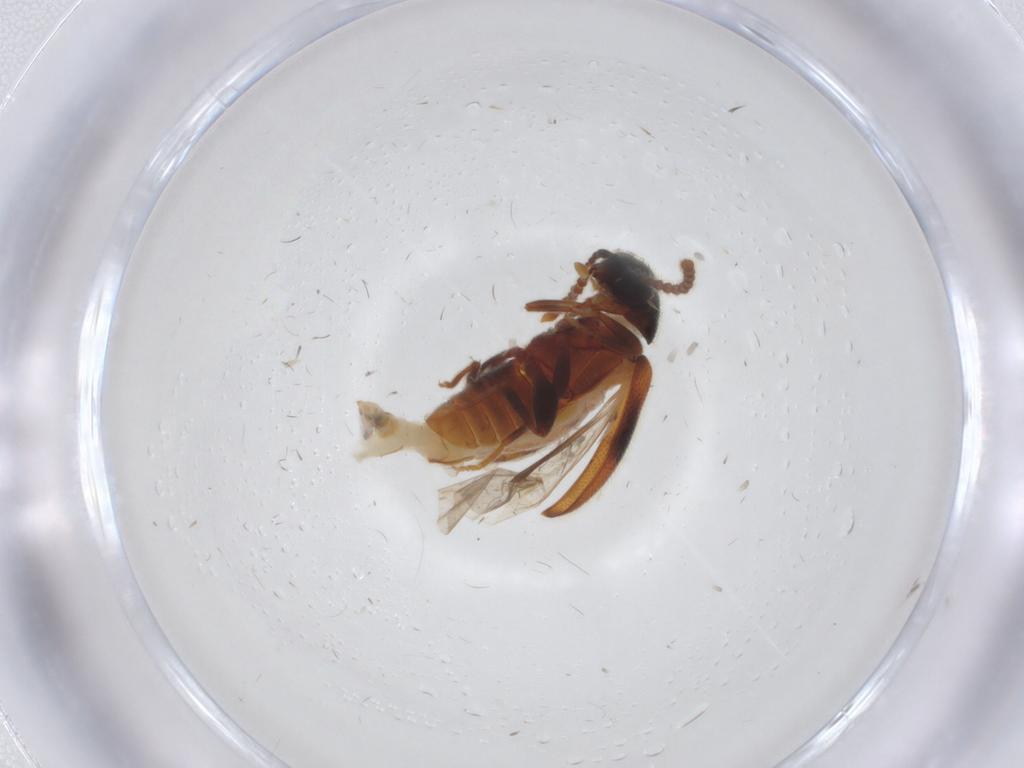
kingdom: Animalia
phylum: Arthropoda
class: Insecta
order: Coleoptera
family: Aderidae
